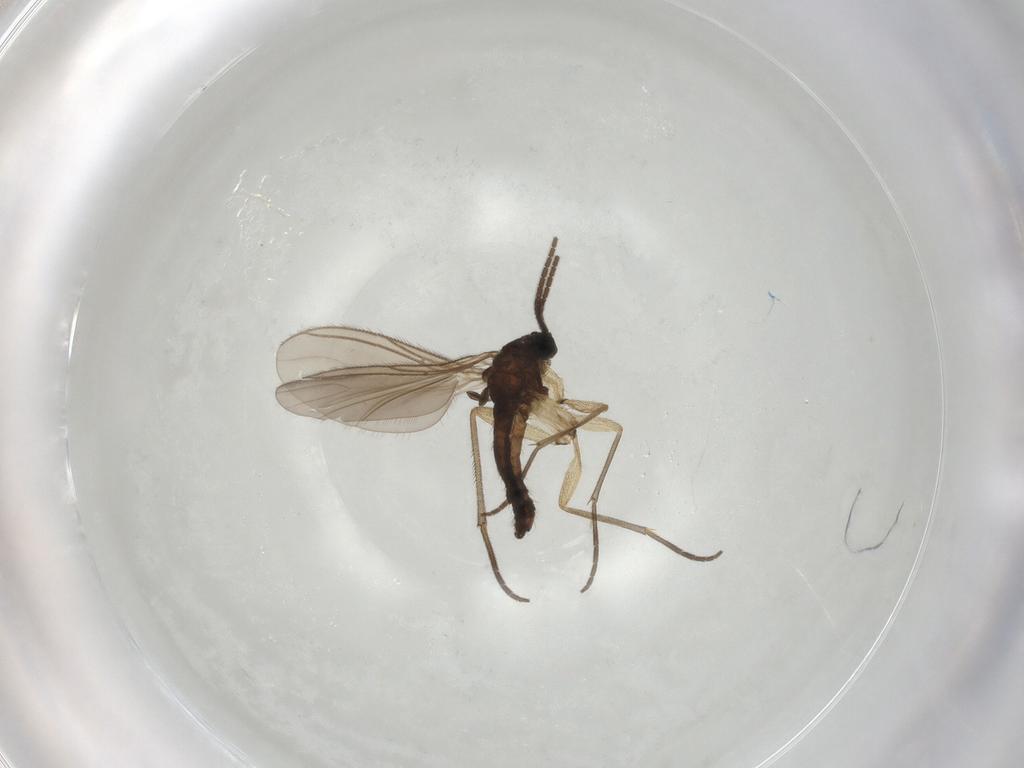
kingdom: Animalia
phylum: Arthropoda
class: Insecta
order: Diptera
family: Sciaridae
